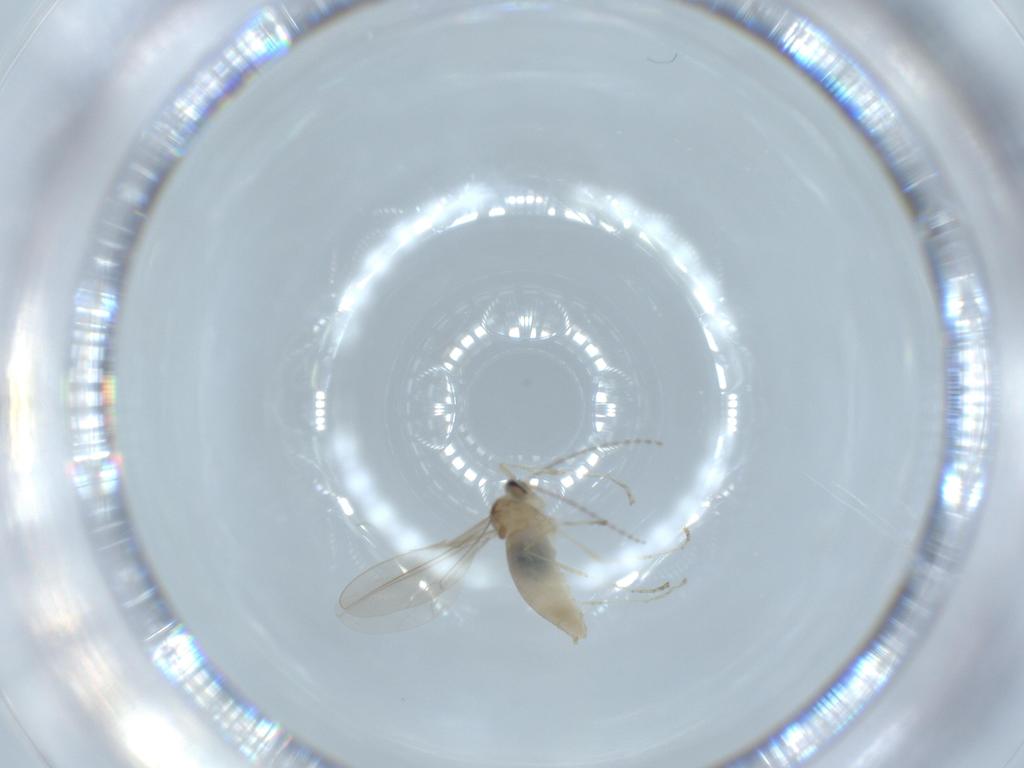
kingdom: Animalia
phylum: Arthropoda
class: Insecta
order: Diptera
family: Cecidomyiidae
